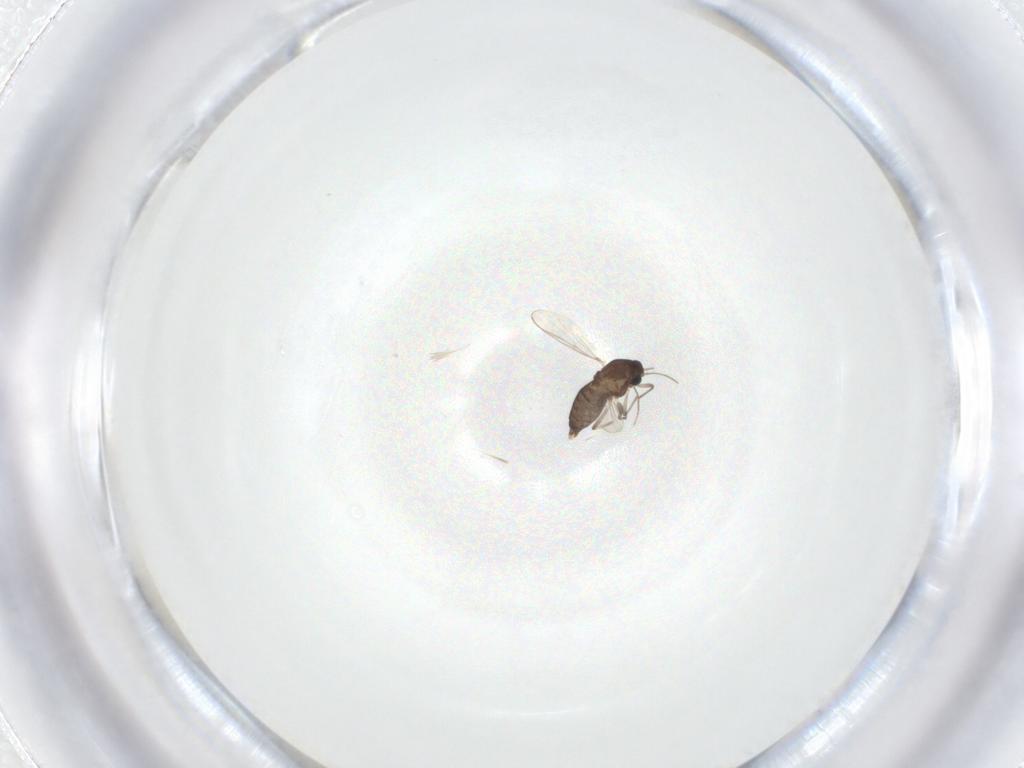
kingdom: Animalia
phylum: Arthropoda
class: Insecta
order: Diptera
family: Chironomidae
